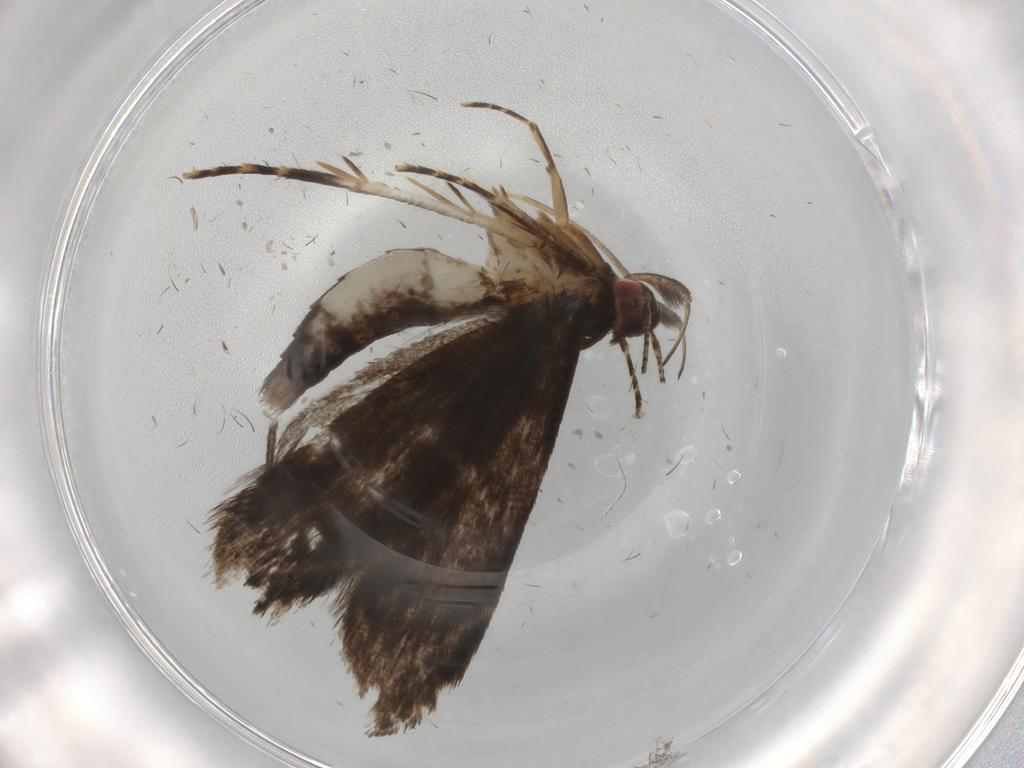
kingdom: Animalia
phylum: Arthropoda
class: Insecta
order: Lepidoptera
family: Gelechiidae
